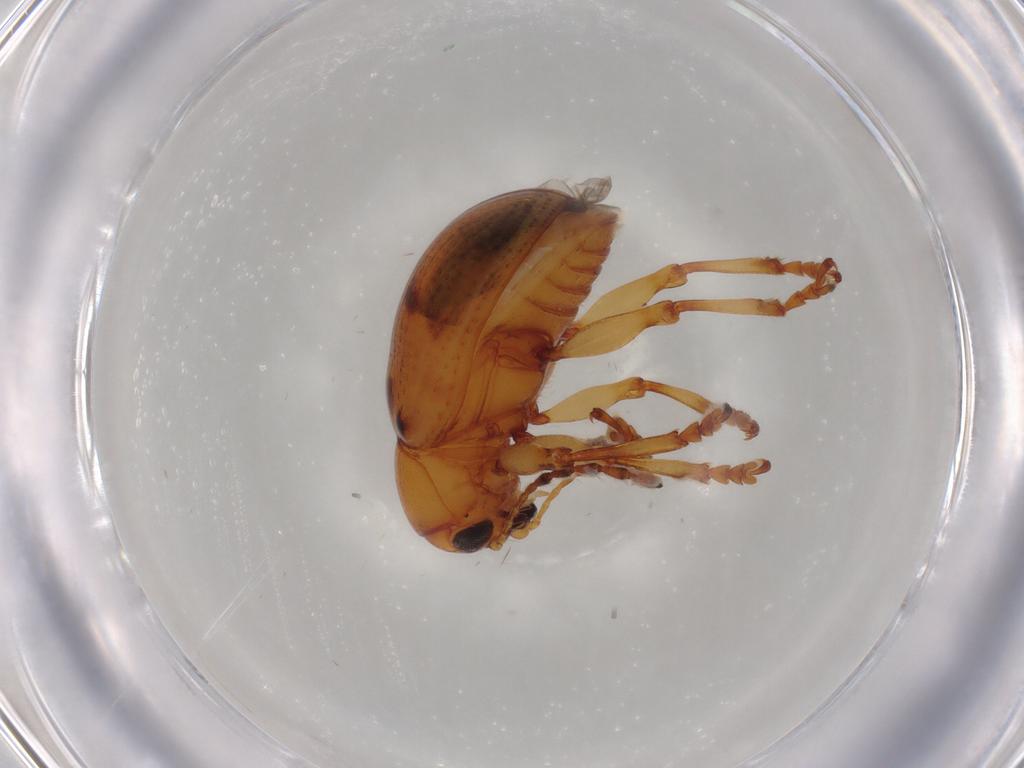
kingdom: Animalia
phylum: Arthropoda
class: Insecta
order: Coleoptera
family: Chrysomelidae
